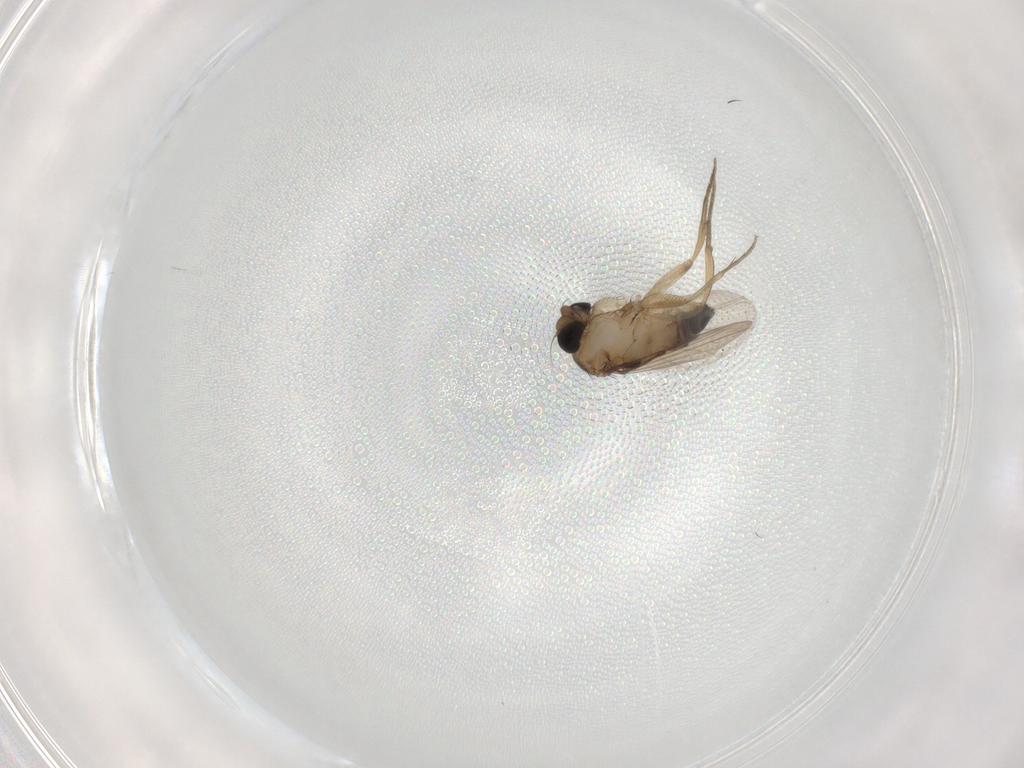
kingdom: Animalia
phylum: Arthropoda
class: Insecta
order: Diptera
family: Phoridae
